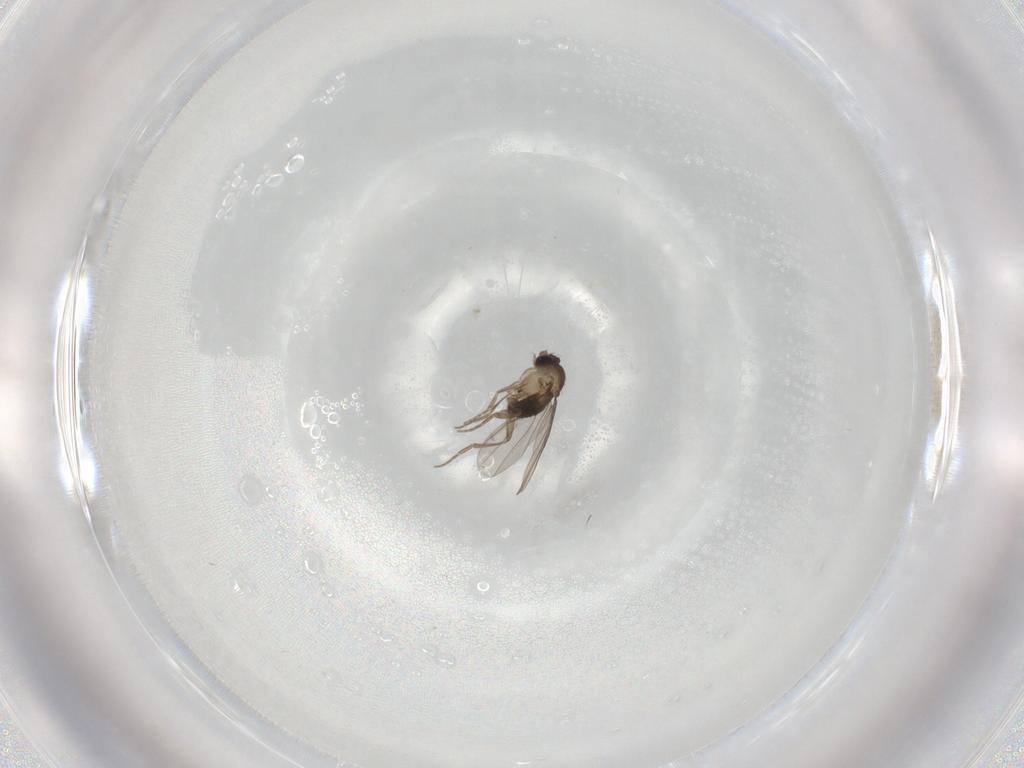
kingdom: Animalia
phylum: Arthropoda
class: Insecta
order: Diptera
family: Phoridae
